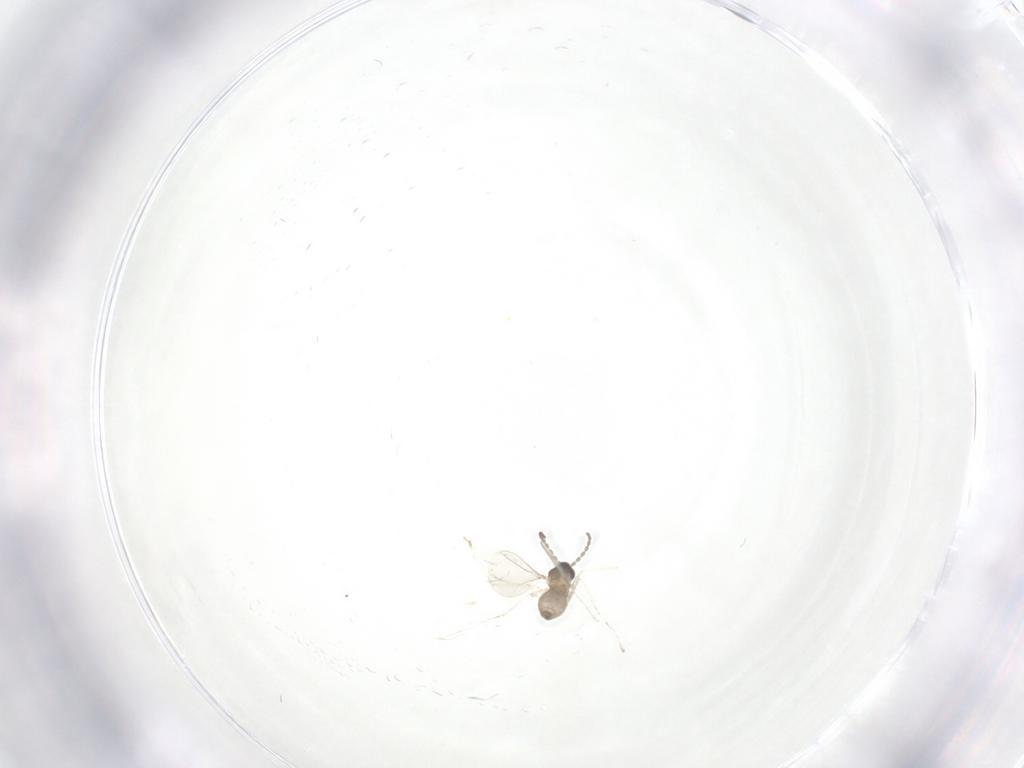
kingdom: Animalia
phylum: Arthropoda
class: Insecta
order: Diptera
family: Cecidomyiidae
